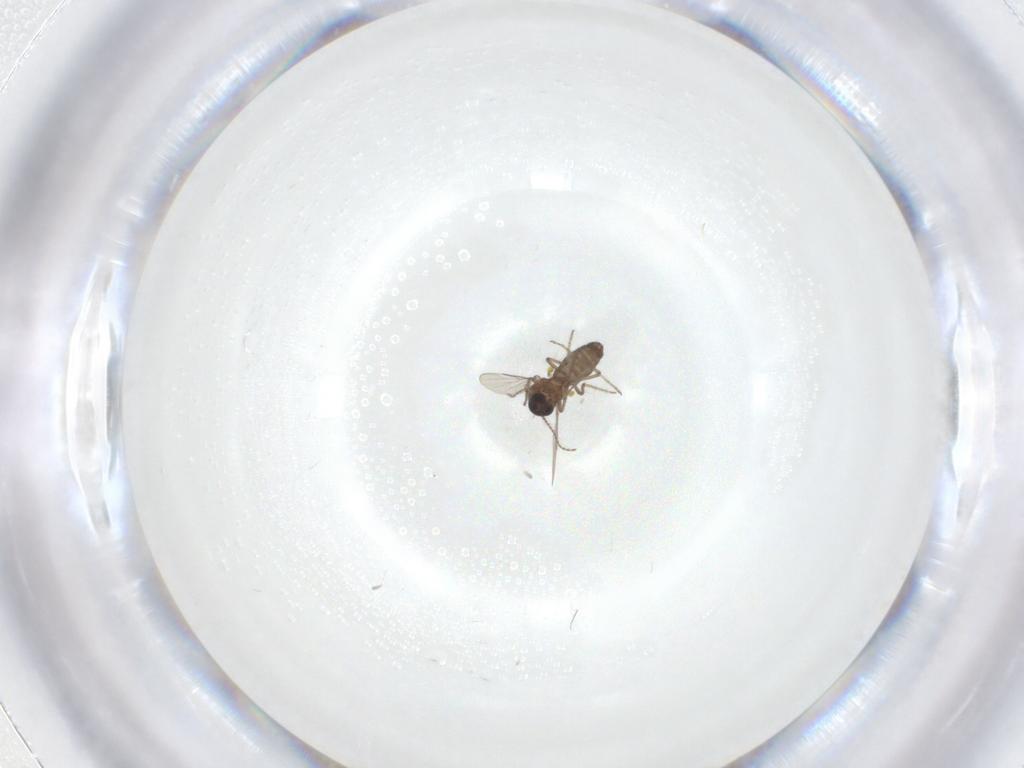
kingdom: Animalia
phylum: Arthropoda
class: Insecta
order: Diptera
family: Ceratopogonidae
